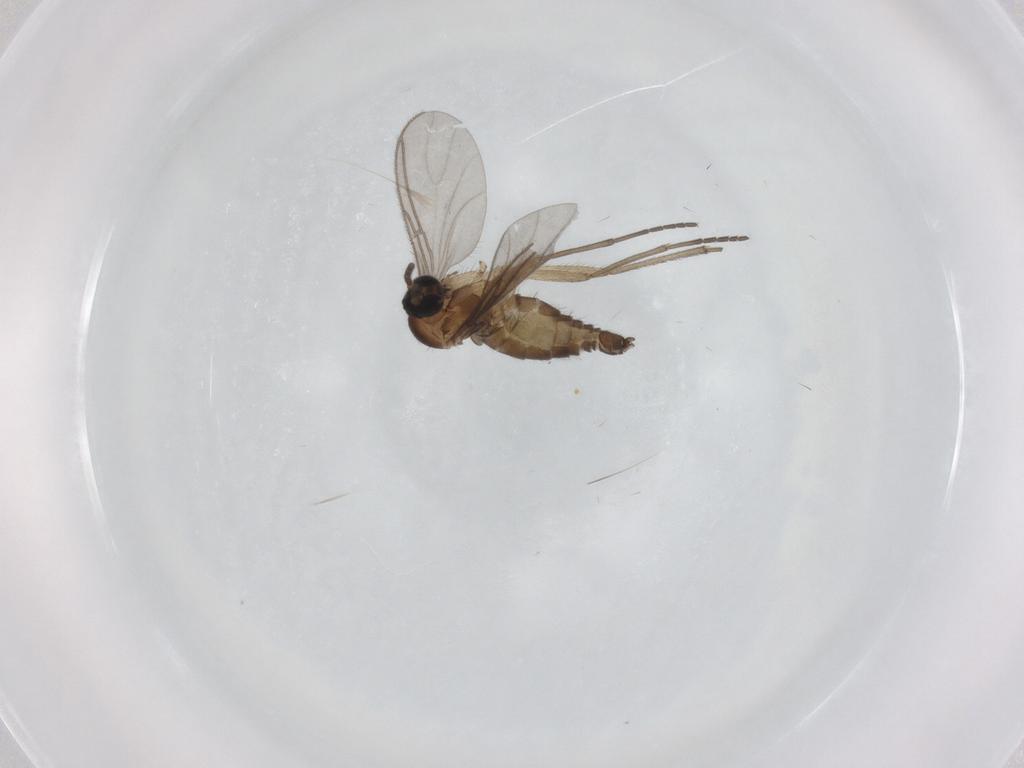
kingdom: Animalia
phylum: Arthropoda
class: Insecta
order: Diptera
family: Sciaridae
